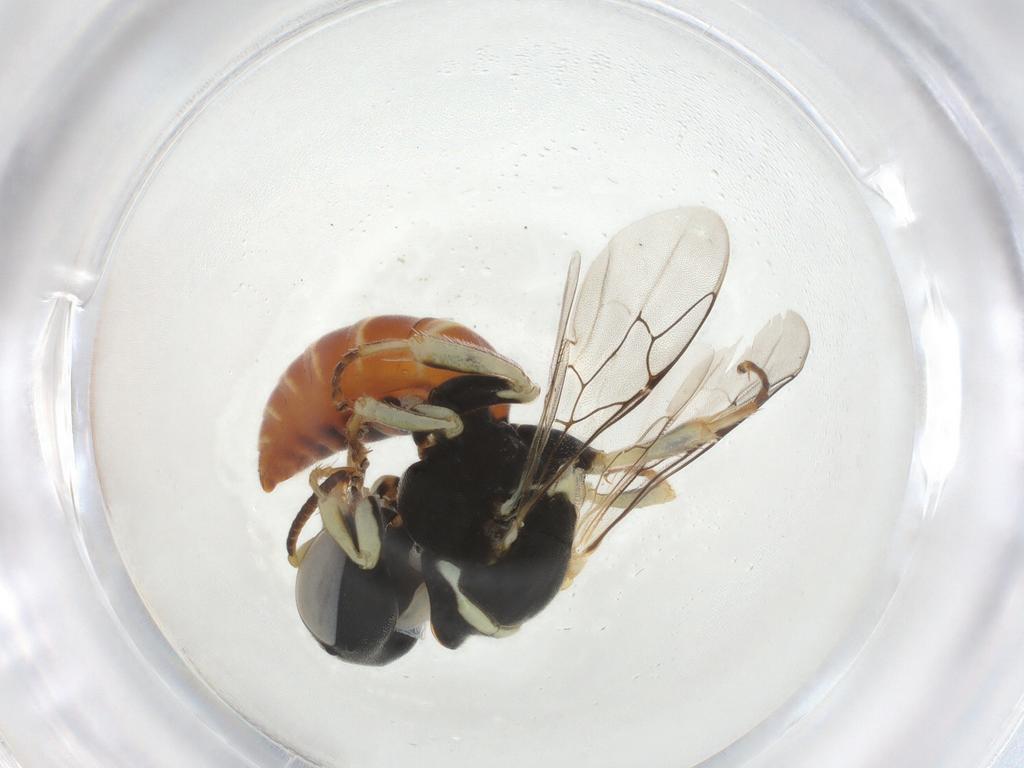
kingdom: Animalia
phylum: Arthropoda
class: Insecta
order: Hymenoptera
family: Crabronidae
